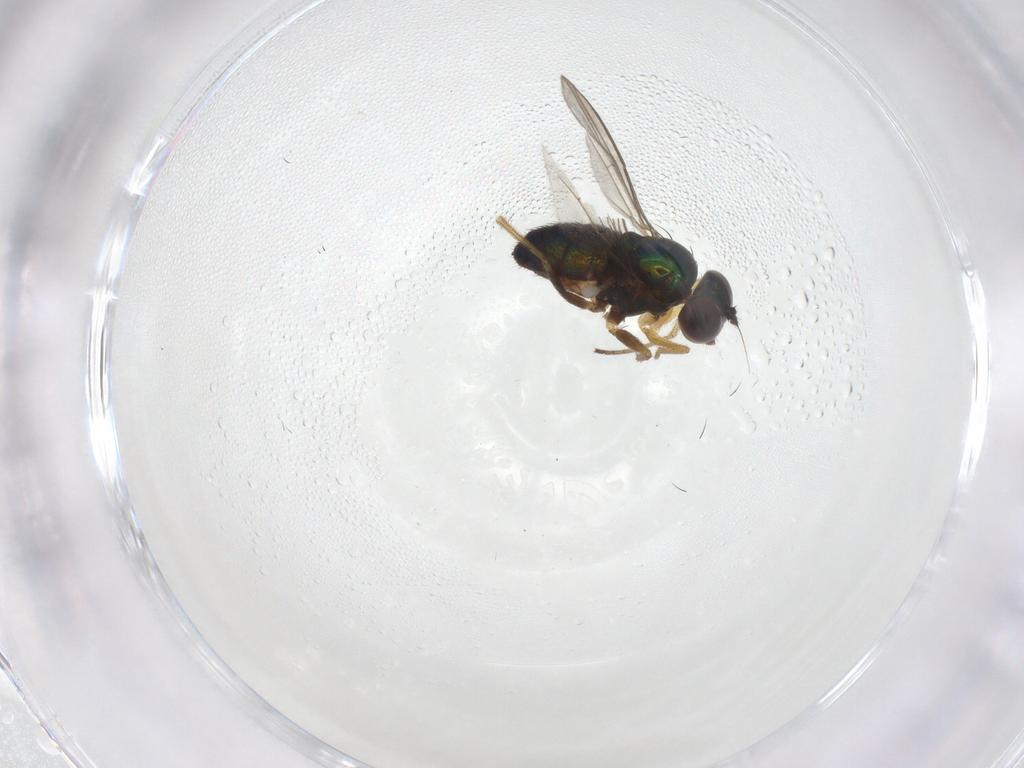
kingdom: Animalia
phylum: Arthropoda
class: Insecta
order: Diptera
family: Dolichopodidae
